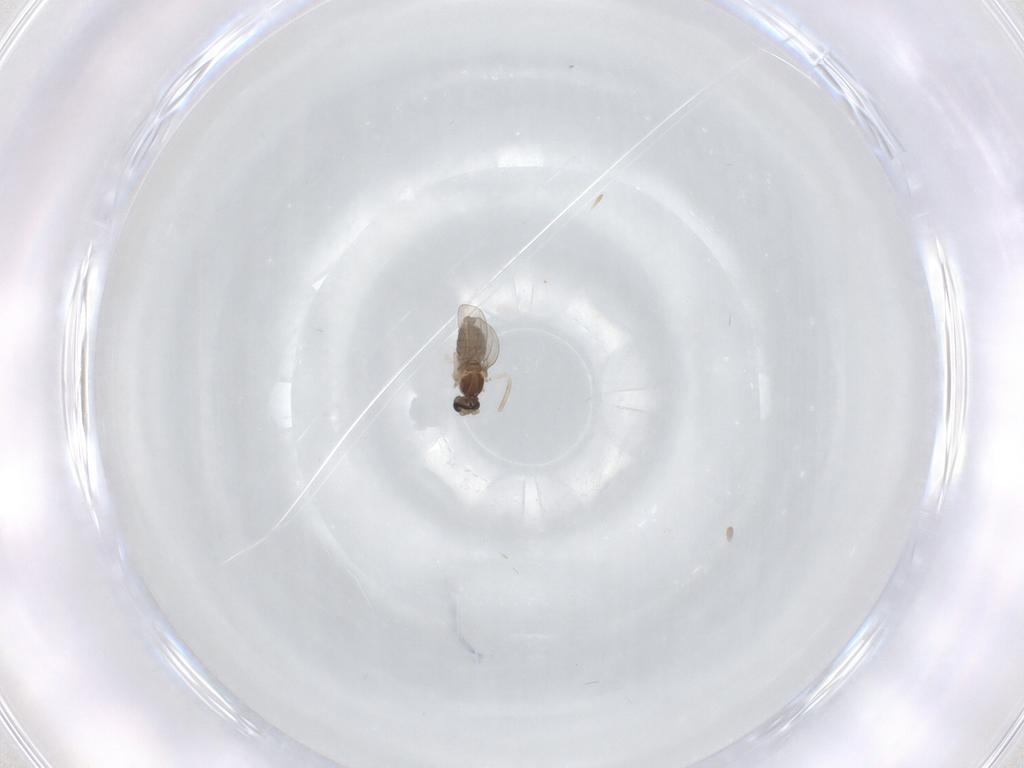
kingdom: Animalia
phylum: Arthropoda
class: Insecta
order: Diptera
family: Cecidomyiidae
